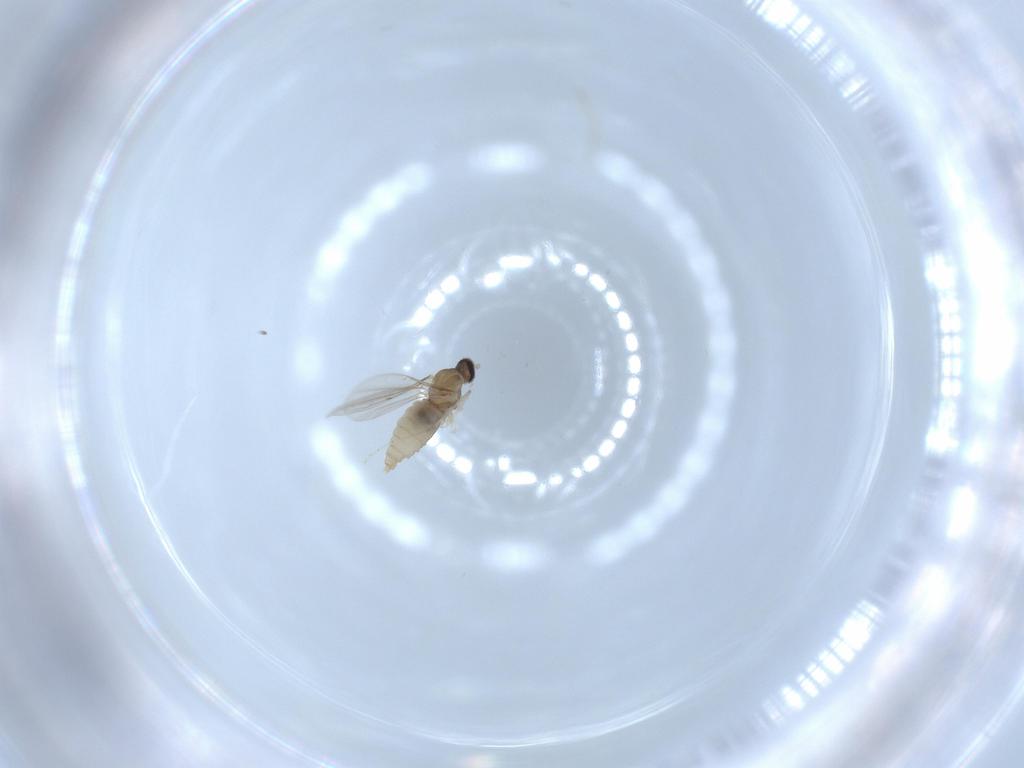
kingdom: Animalia
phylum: Arthropoda
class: Insecta
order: Diptera
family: Cecidomyiidae
